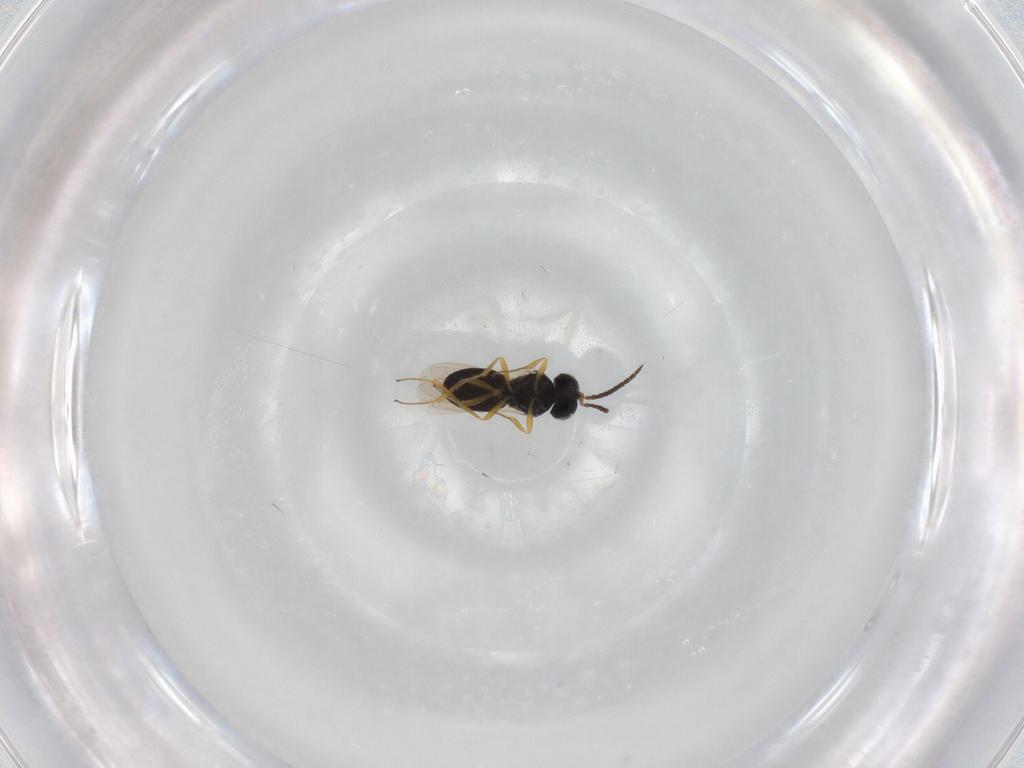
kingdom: Animalia
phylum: Arthropoda
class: Insecta
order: Hymenoptera
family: Scelionidae
